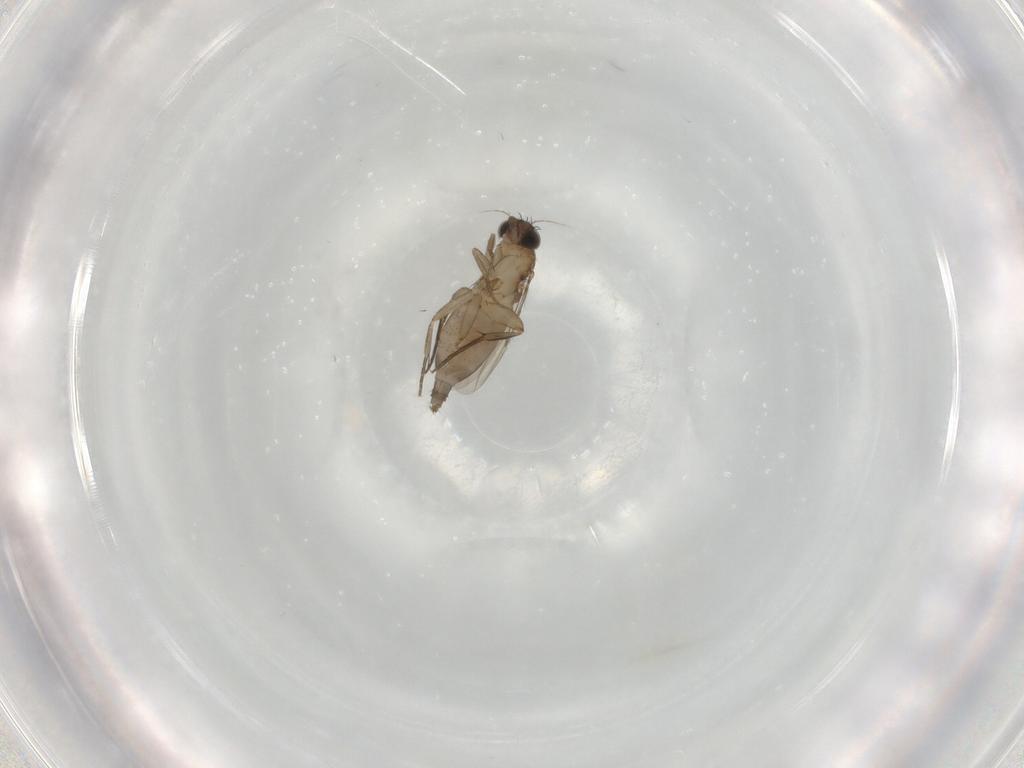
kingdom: Animalia
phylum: Arthropoda
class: Insecta
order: Diptera
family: Phoridae
